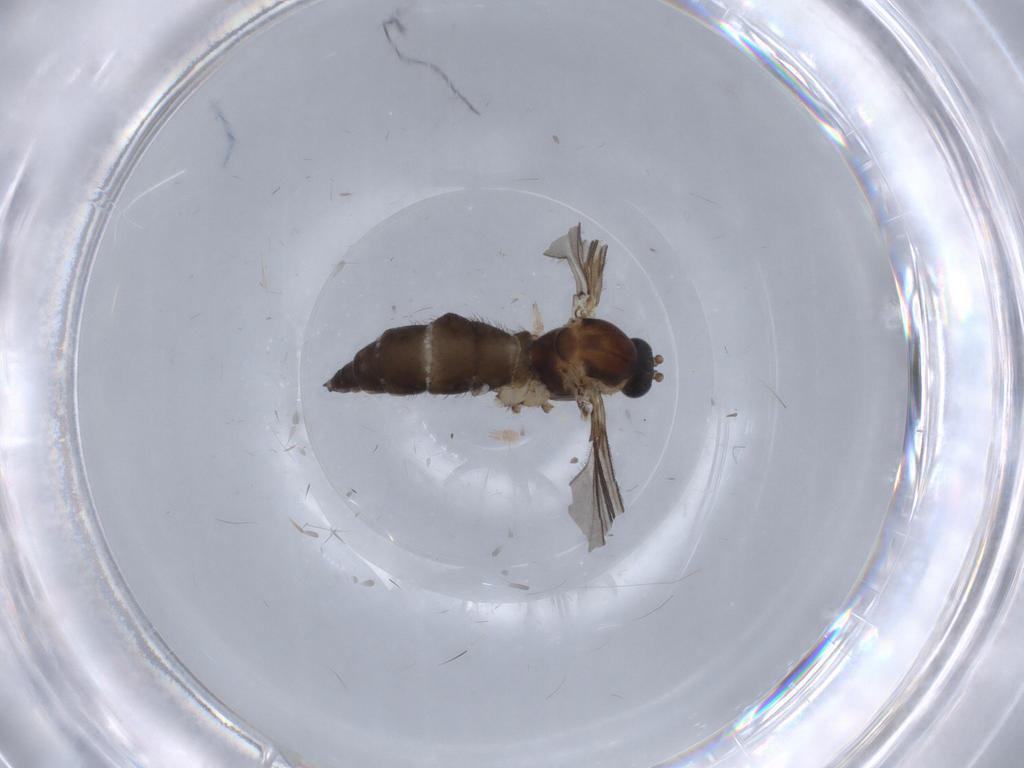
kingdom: Animalia
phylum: Arthropoda
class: Insecta
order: Diptera
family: Sciaridae
